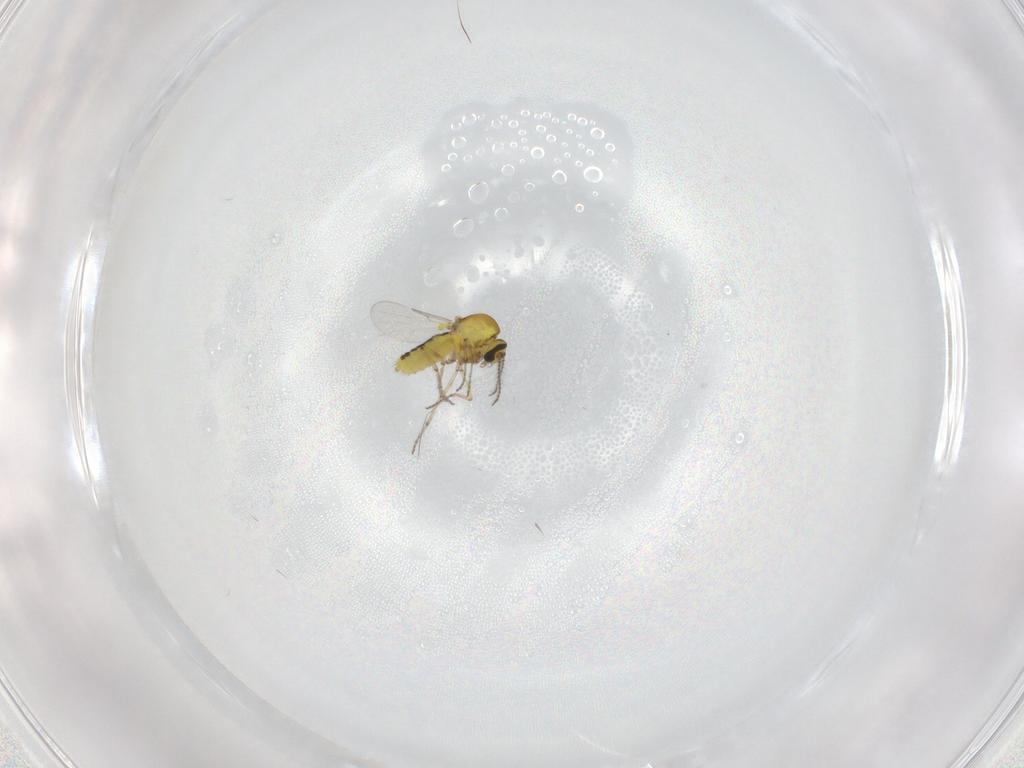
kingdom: Animalia
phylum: Arthropoda
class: Insecta
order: Diptera
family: Ceratopogonidae
